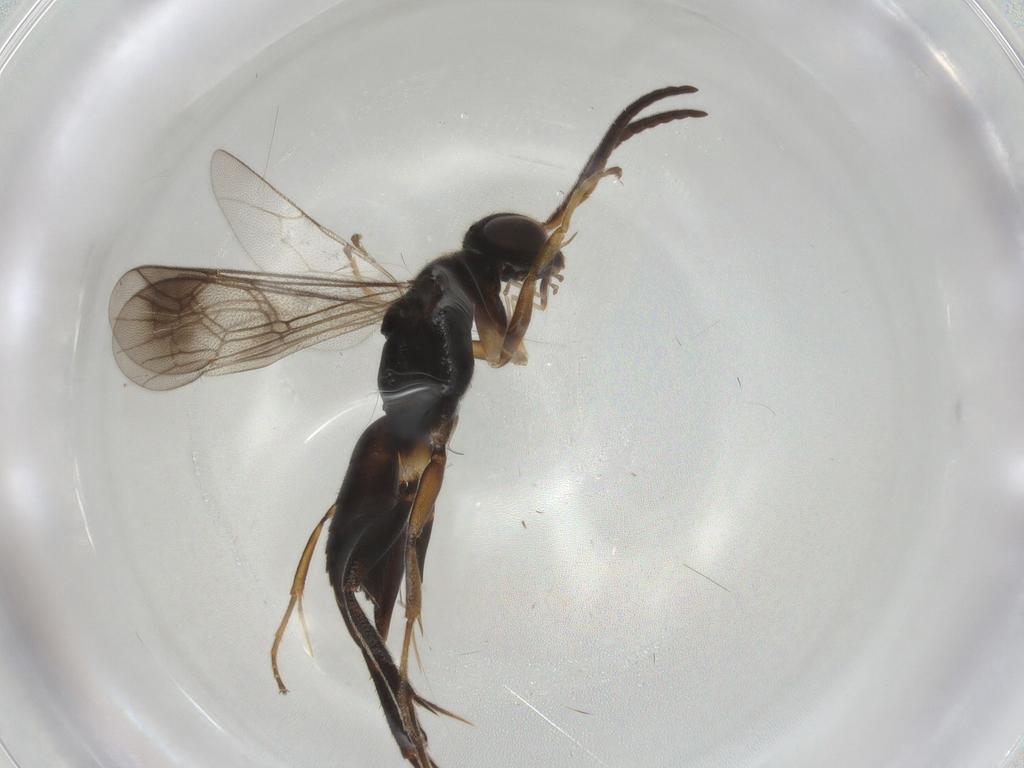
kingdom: Animalia
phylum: Arthropoda
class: Insecta
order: Hymenoptera
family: Pompilidae
